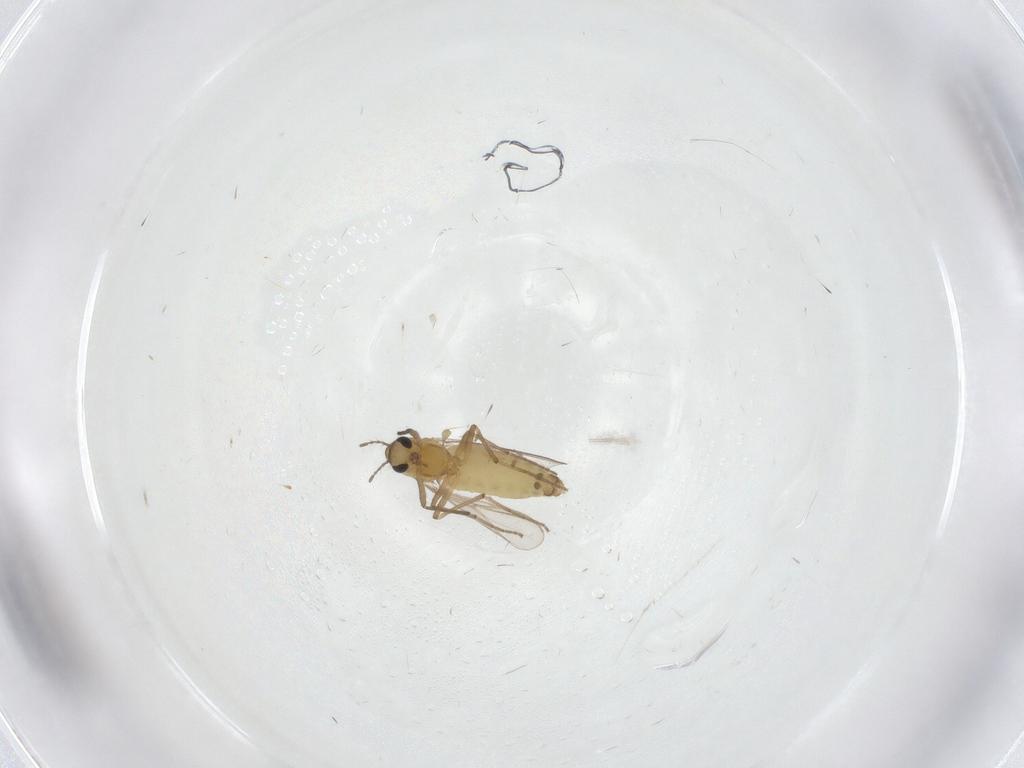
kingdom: Animalia
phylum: Arthropoda
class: Insecta
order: Diptera
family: Chironomidae
